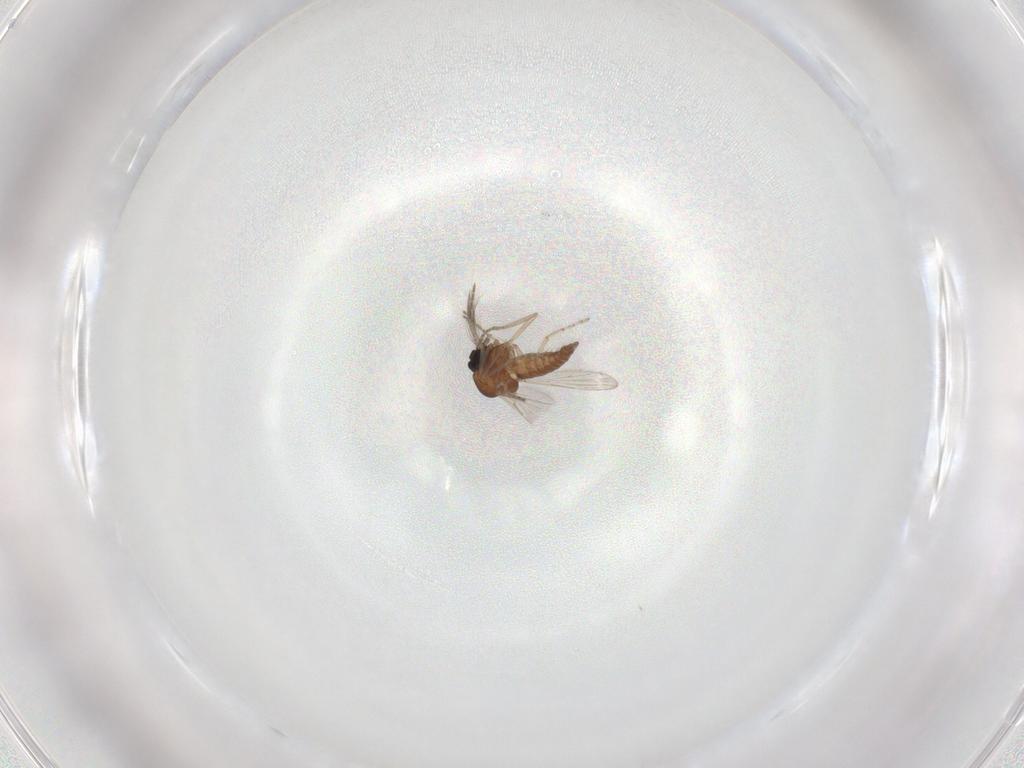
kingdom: Animalia
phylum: Arthropoda
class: Insecta
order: Diptera
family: Ceratopogonidae
